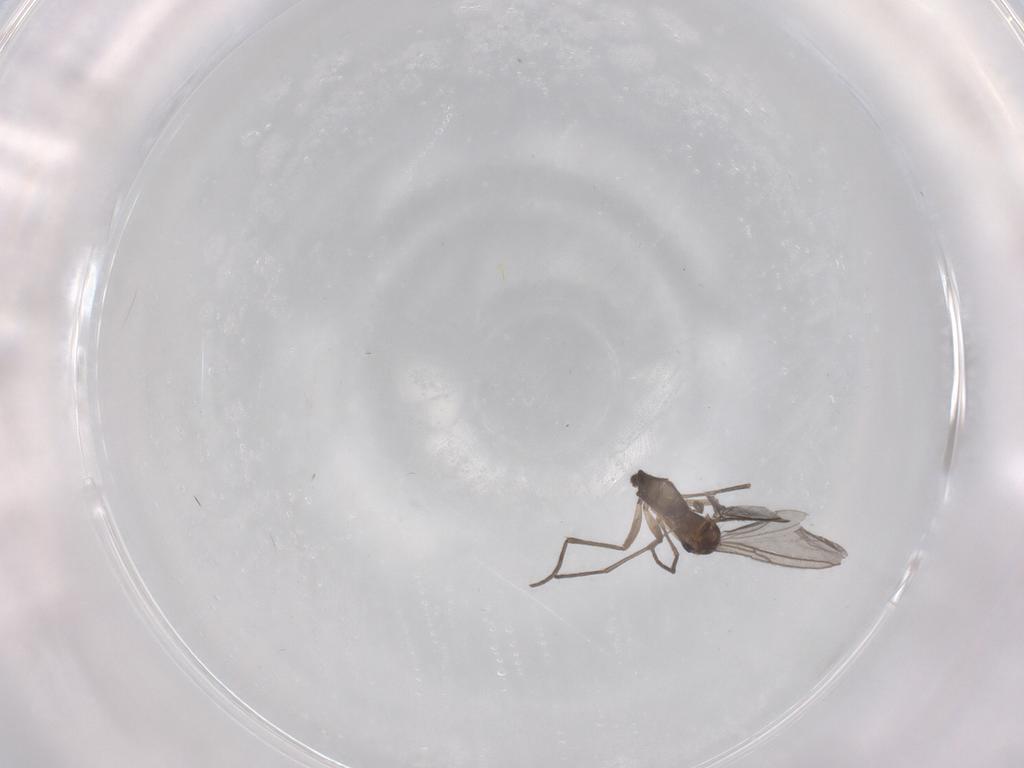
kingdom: Animalia
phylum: Arthropoda
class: Insecta
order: Diptera
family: Sciaridae
